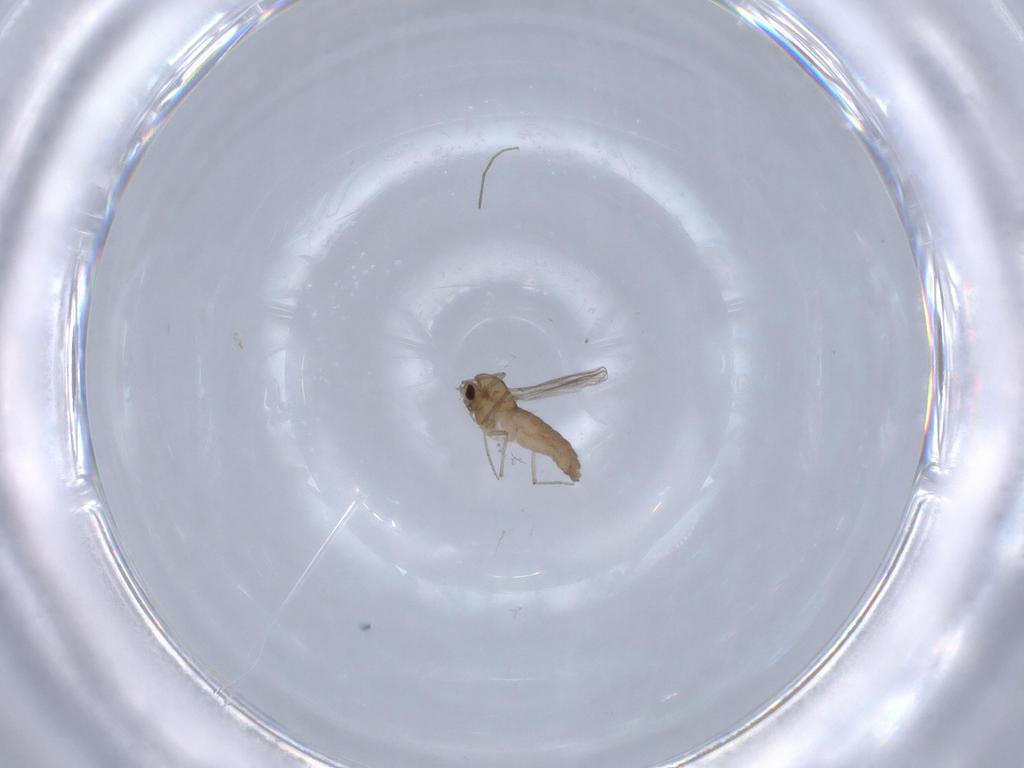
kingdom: Animalia
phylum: Arthropoda
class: Insecta
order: Diptera
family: Chironomidae
